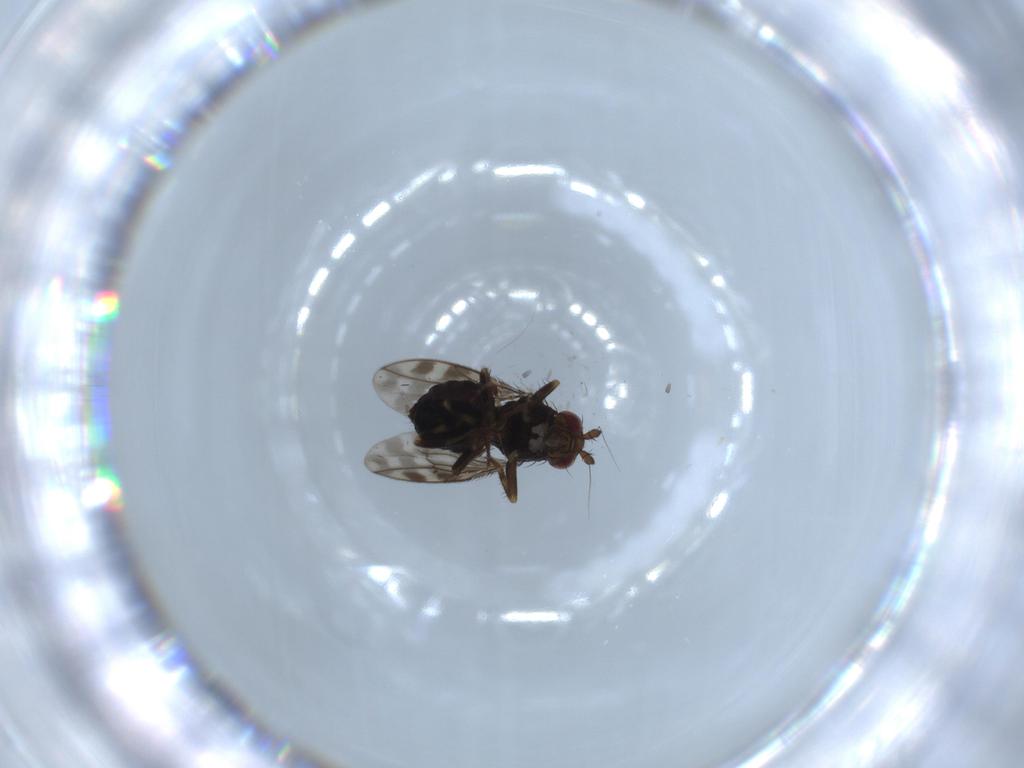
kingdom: Animalia
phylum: Arthropoda
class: Insecta
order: Diptera
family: Sphaeroceridae
